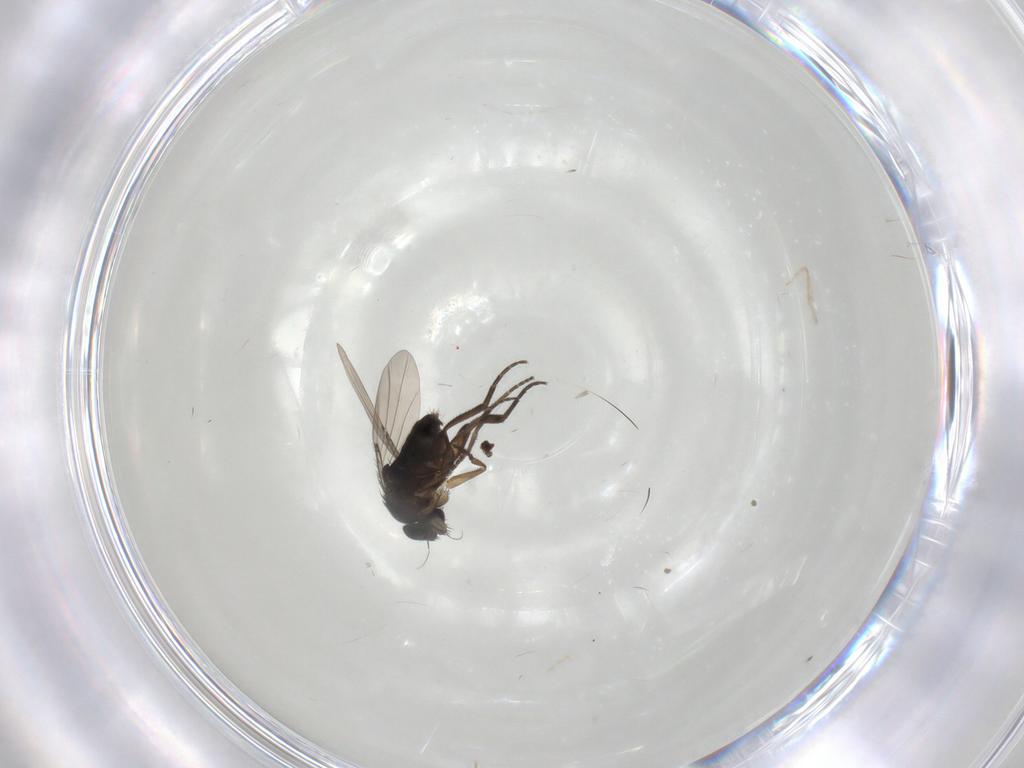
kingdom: Animalia
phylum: Arthropoda
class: Insecta
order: Diptera
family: Phoridae
